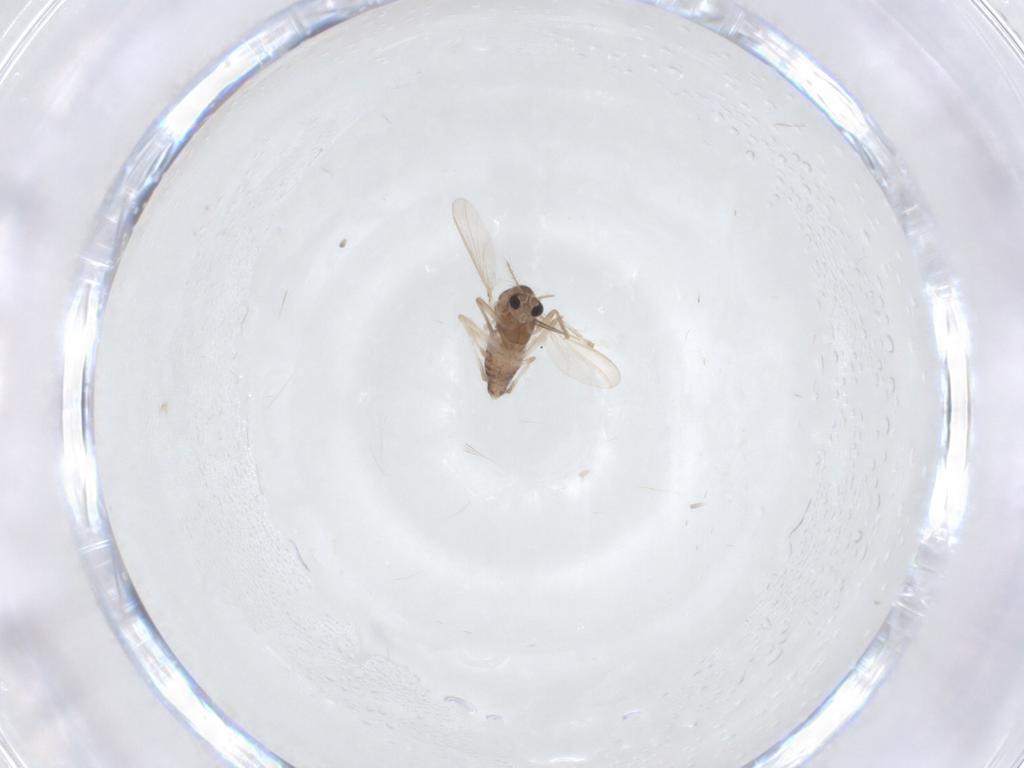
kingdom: Animalia
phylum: Arthropoda
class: Insecta
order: Diptera
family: Chironomidae
